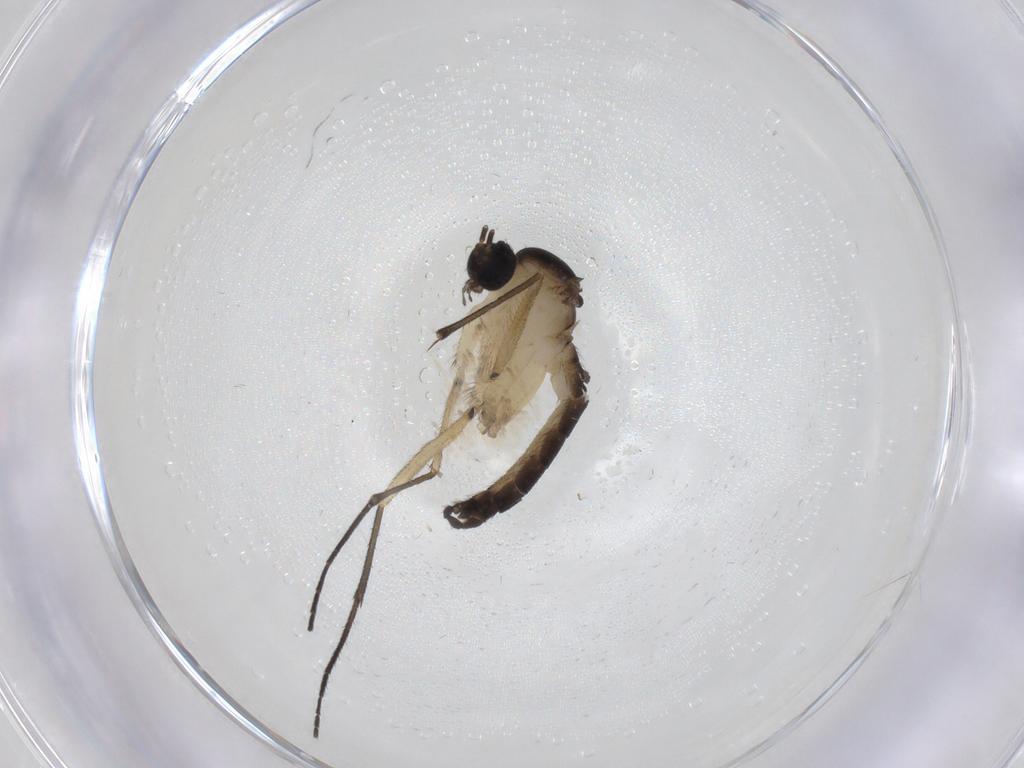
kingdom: Animalia
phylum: Arthropoda
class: Insecta
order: Diptera
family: Sciaridae
